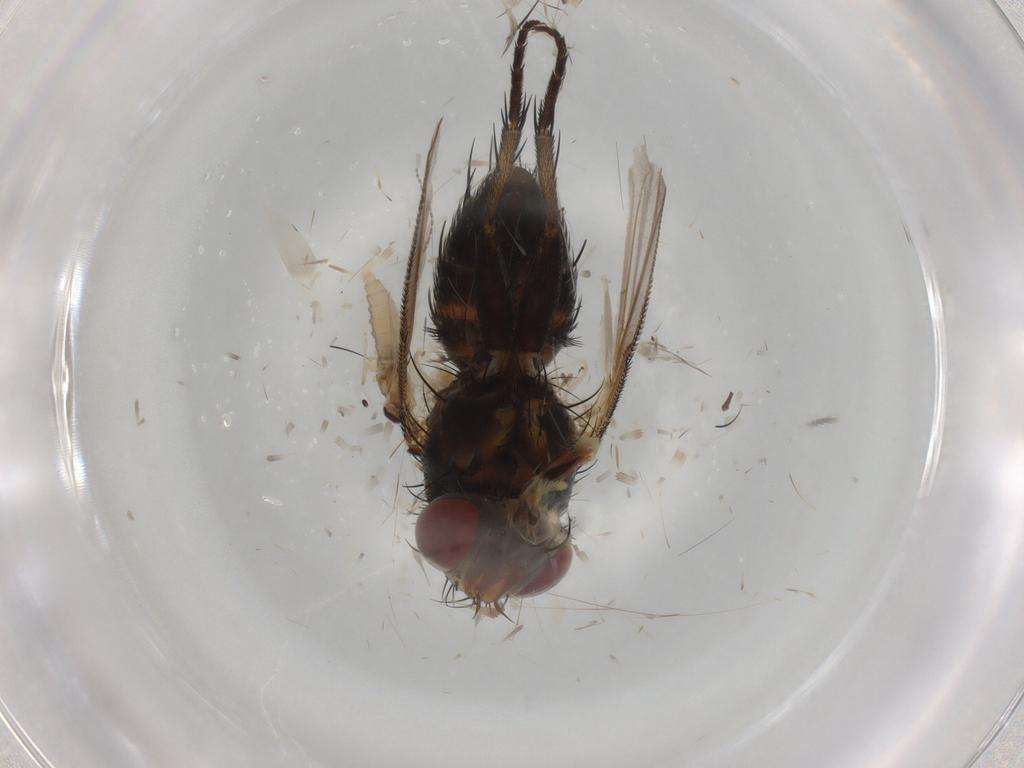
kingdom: Animalia
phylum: Arthropoda
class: Insecta
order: Diptera
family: Cecidomyiidae
